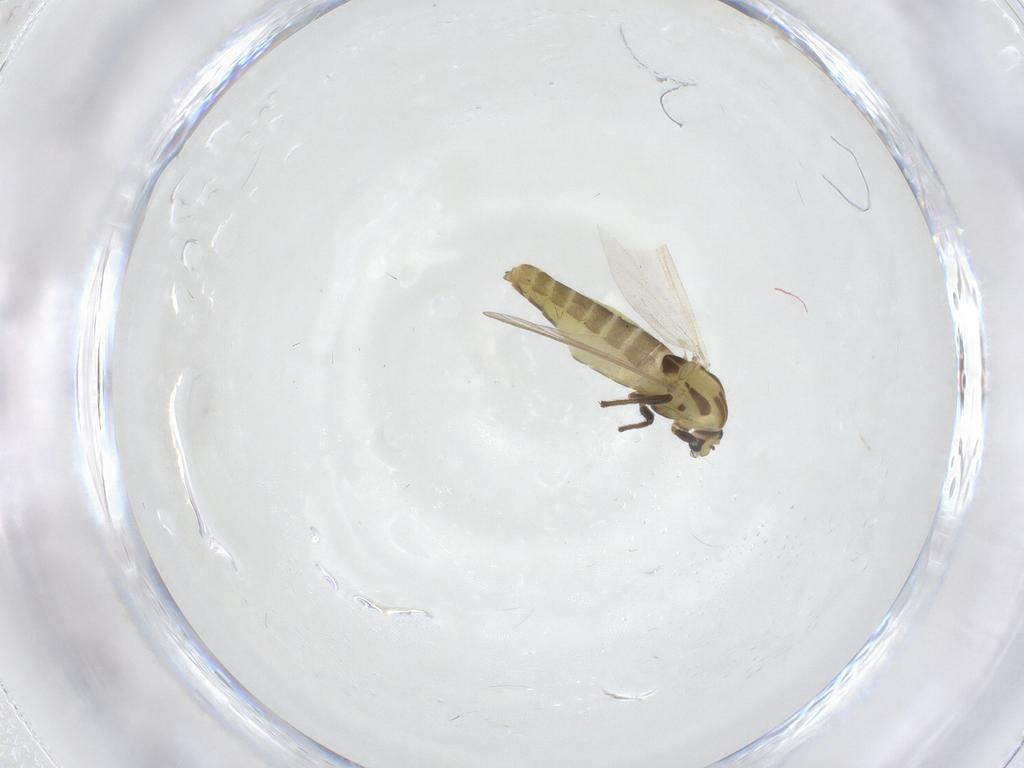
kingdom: Animalia
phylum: Arthropoda
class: Insecta
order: Diptera
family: Chironomidae
